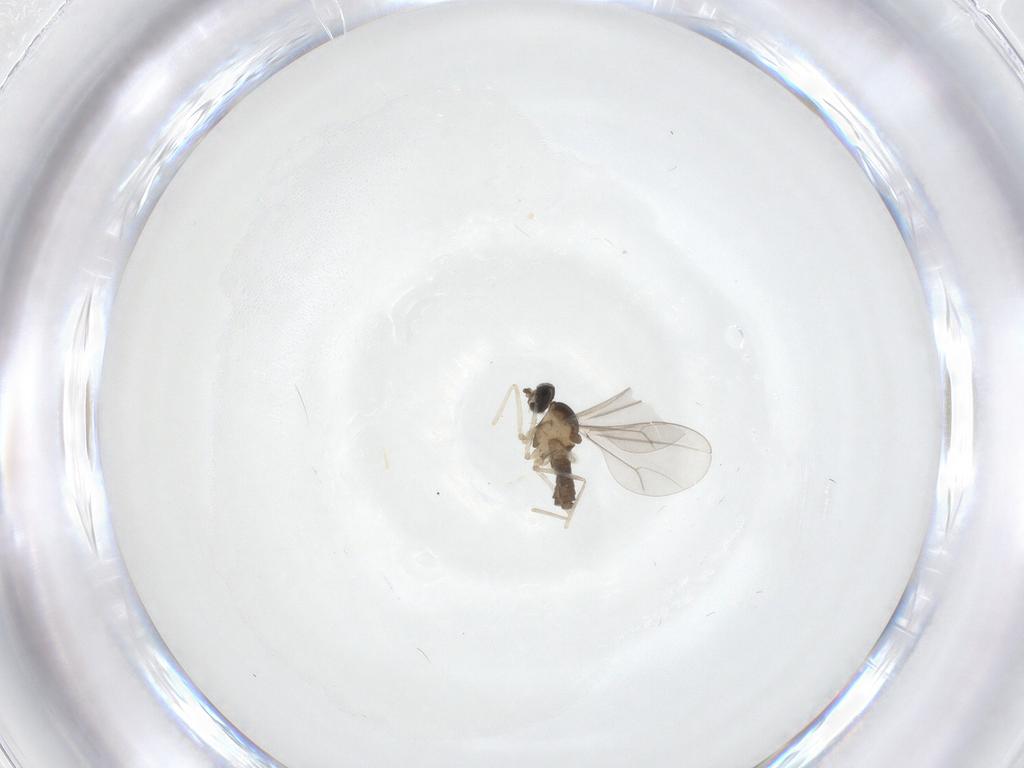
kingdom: Animalia
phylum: Arthropoda
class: Insecta
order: Diptera
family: Cecidomyiidae
